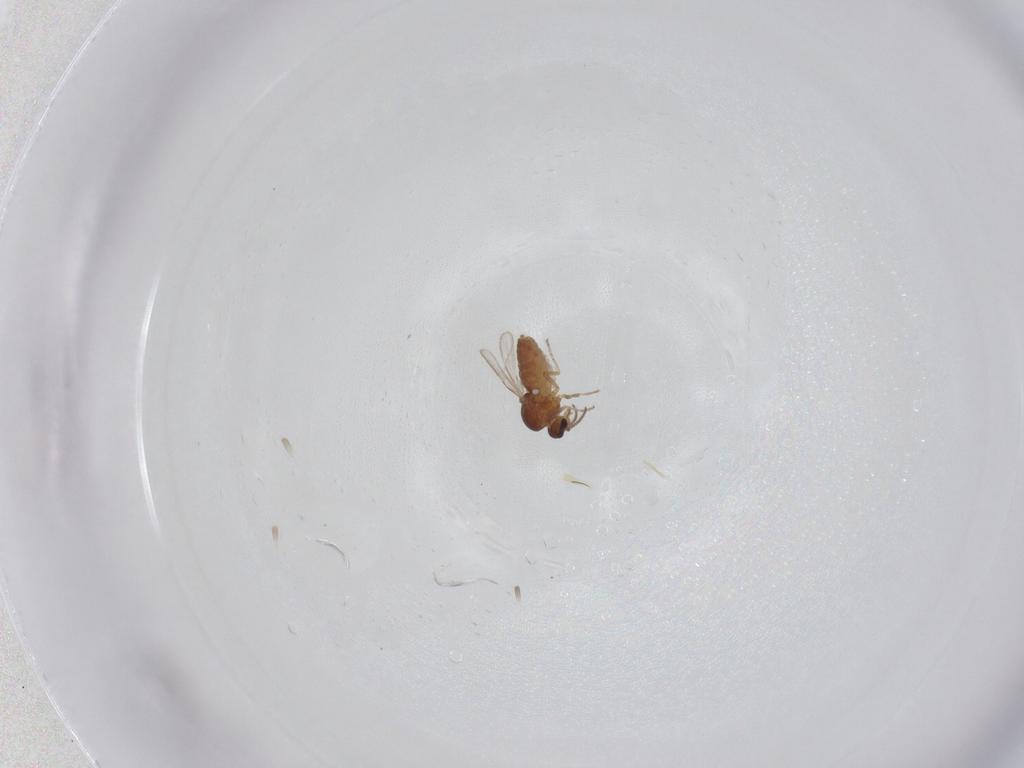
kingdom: Animalia
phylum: Arthropoda
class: Insecta
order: Diptera
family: Ceratopogonidae
